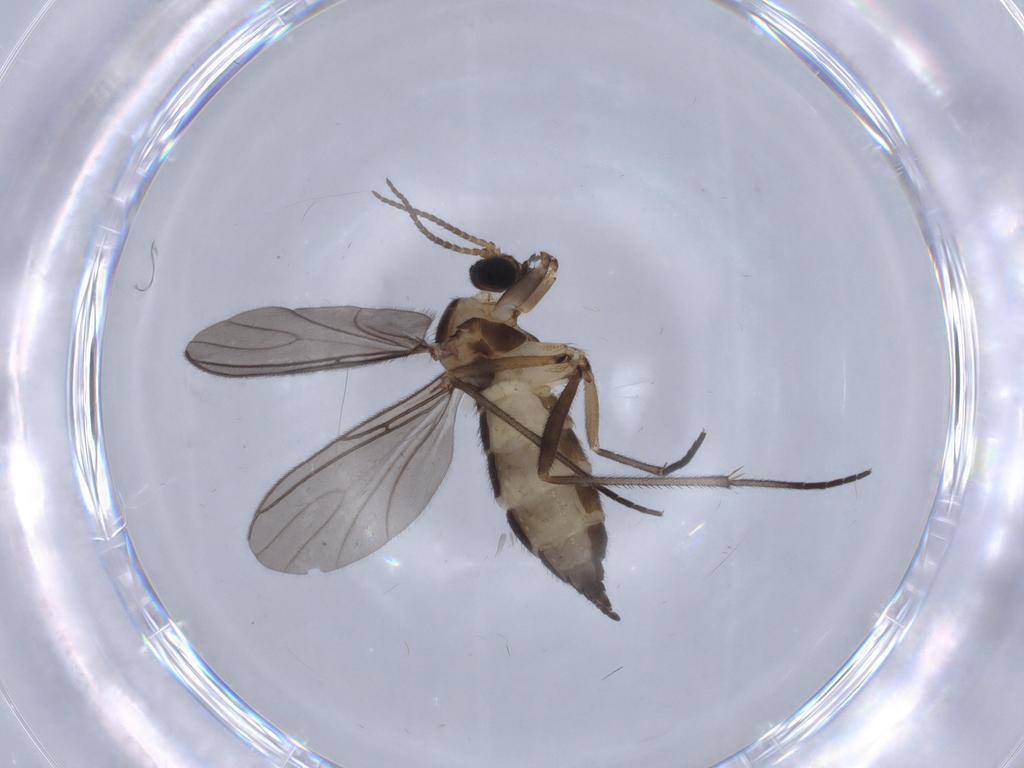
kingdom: Animalia
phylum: Arthropoda
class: Insecta
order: Diptera
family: Sciaridae
